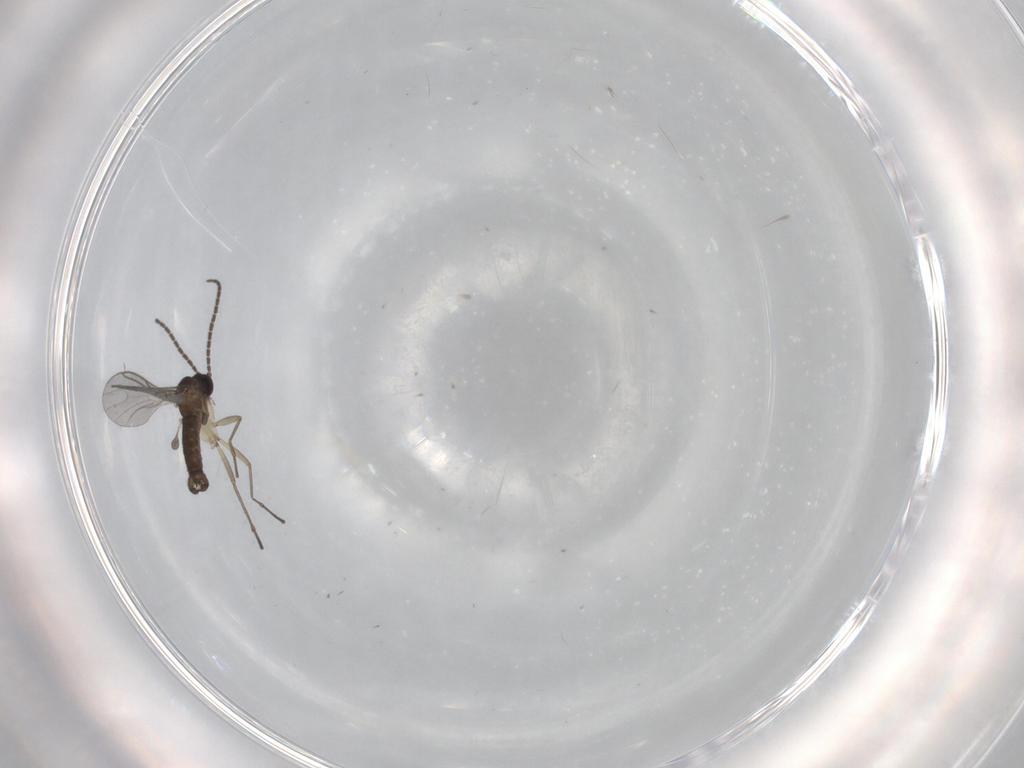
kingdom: Animalia
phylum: Arthropoda
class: Insecta
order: Diptera
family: Sciaridae
